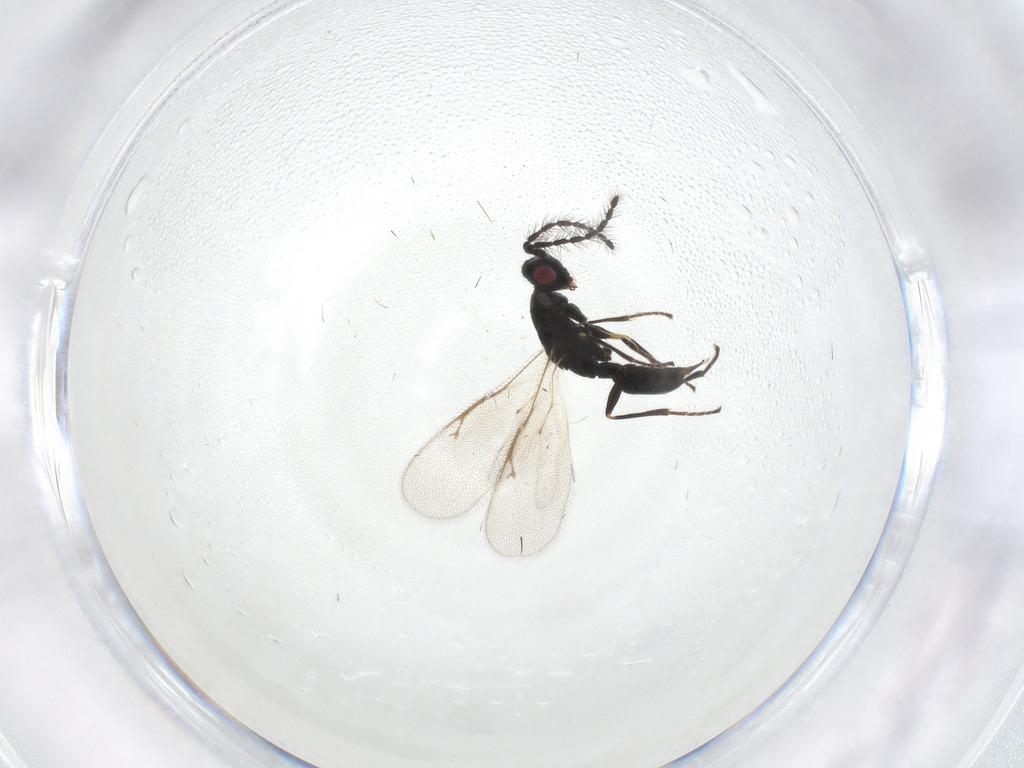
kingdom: Animalia
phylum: Arthropoda
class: Insecta
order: Hymenoptera
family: Eurytomidae
